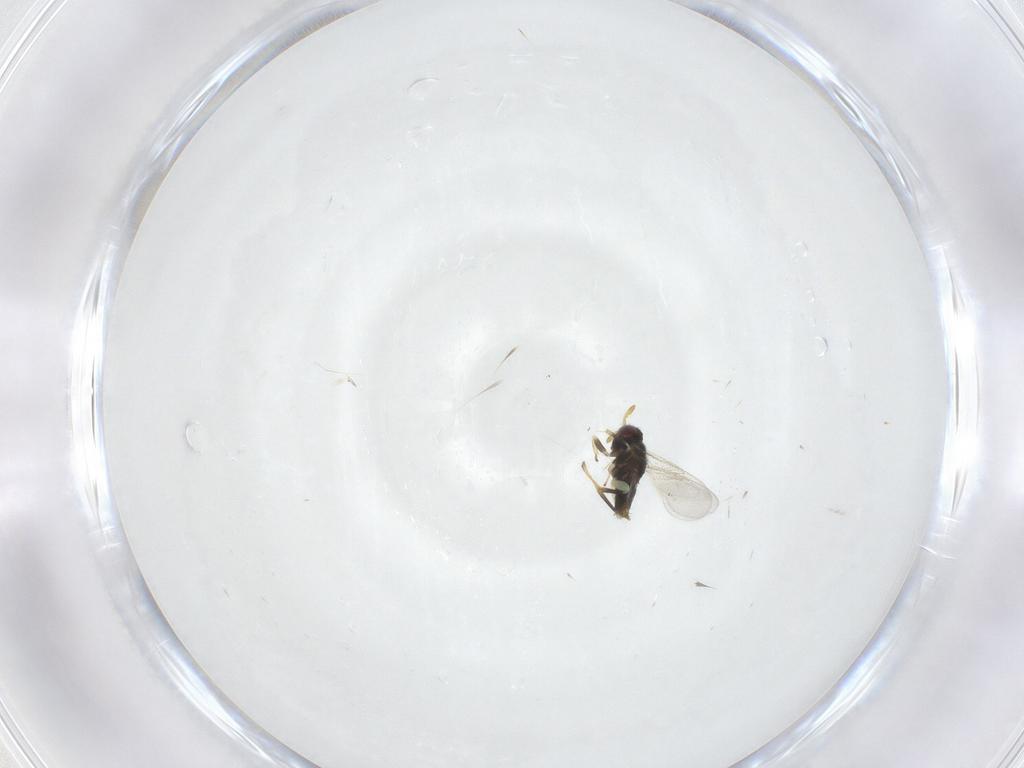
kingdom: Animalia
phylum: Arthropoda
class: Insecta
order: Hymenoptera
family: Aphelinidae
